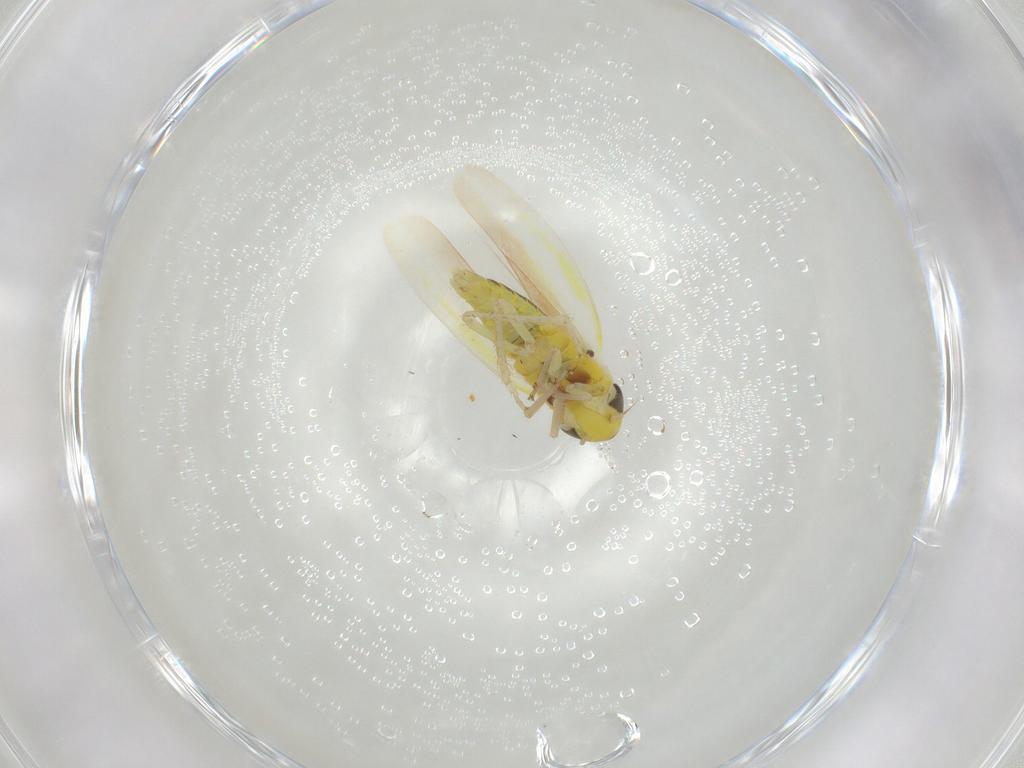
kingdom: Animalia
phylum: Arthropoda
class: Insecta
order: Hemiptera
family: Cicadellidae
